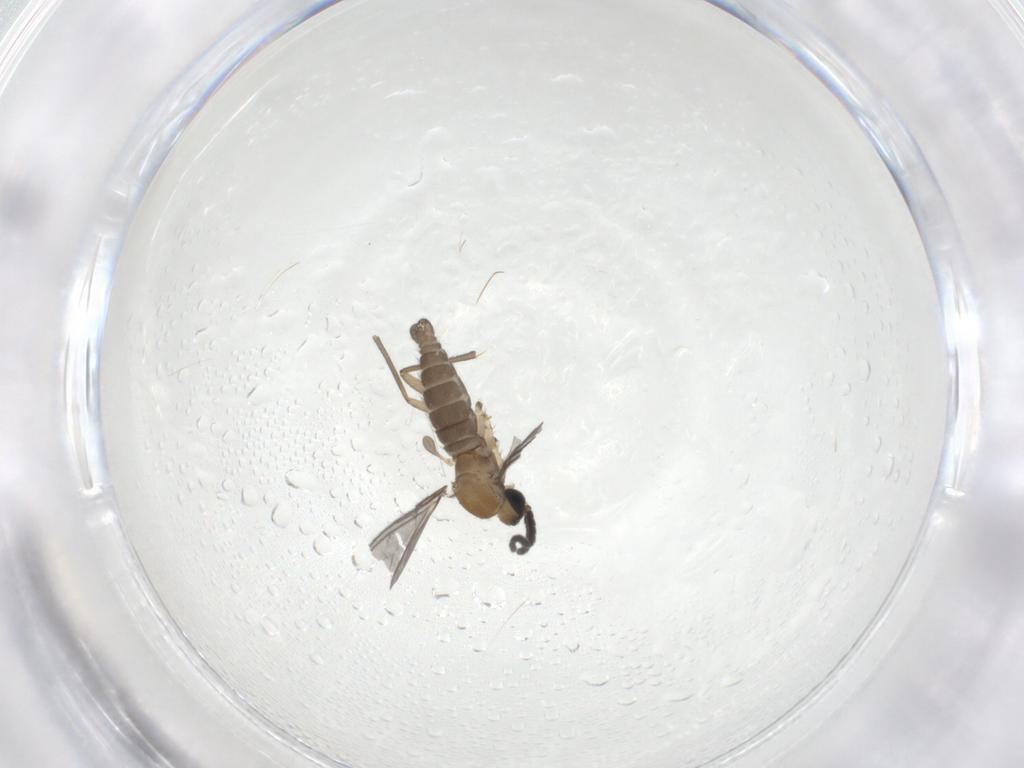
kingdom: Animalia
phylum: Arthropoda
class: Insecta
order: Diptera
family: Sciaridae
